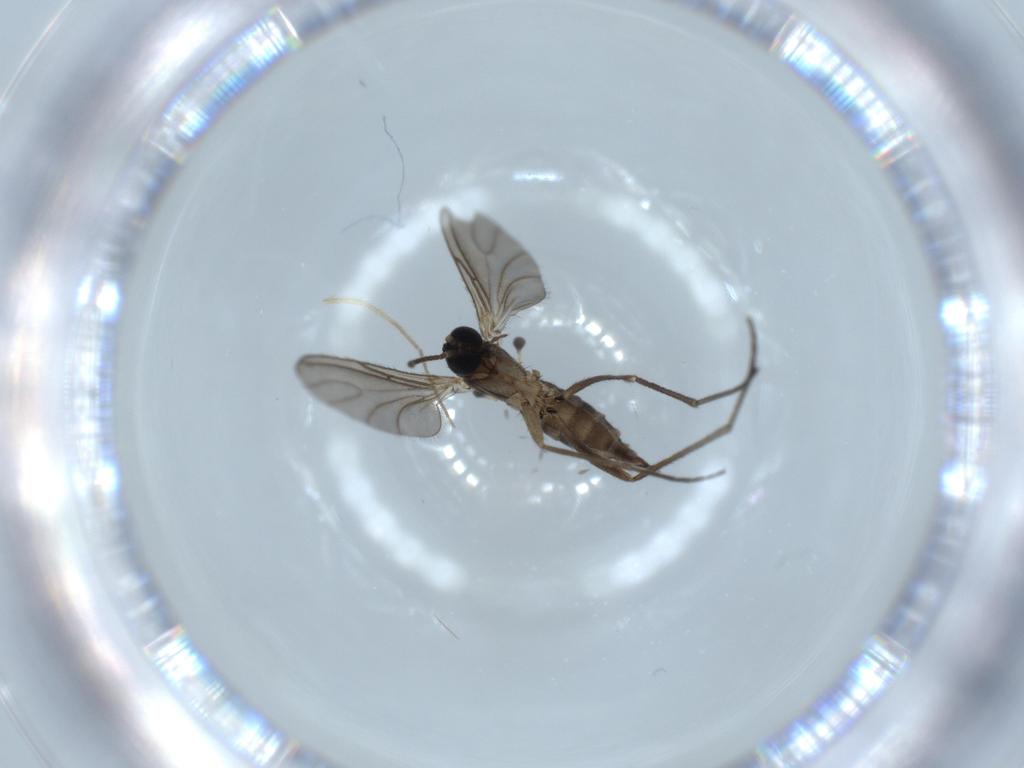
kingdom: Animalia
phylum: Arthropoda
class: Insecta
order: Diptera
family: Sciaridae
